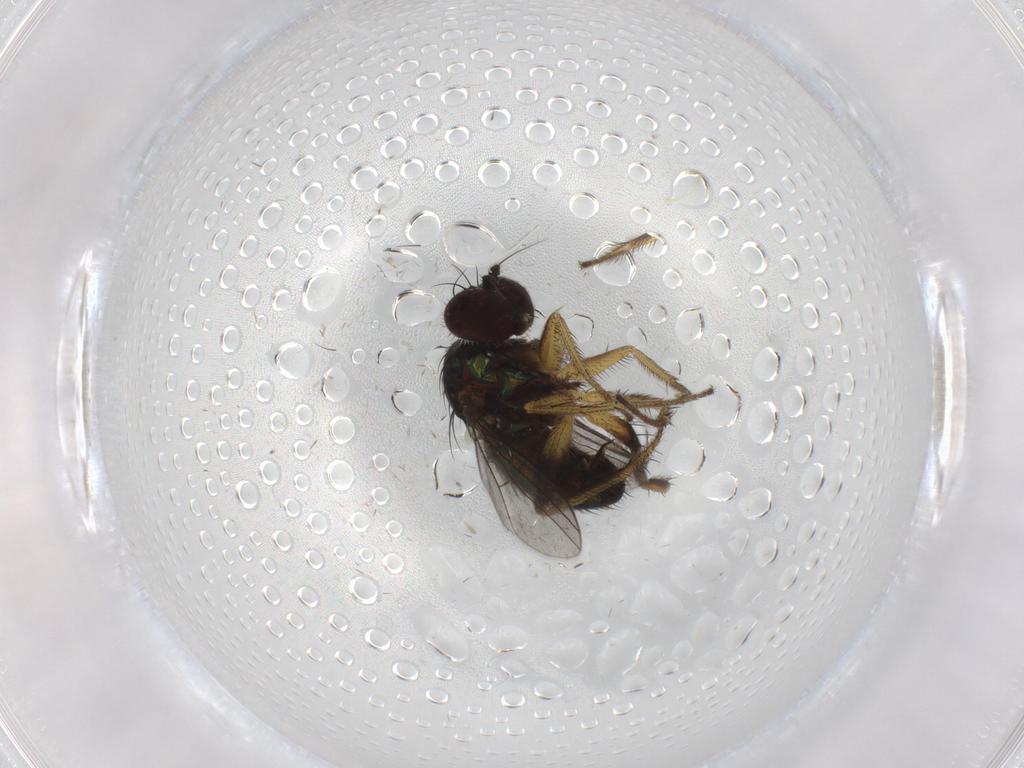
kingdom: Animalia
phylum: Arthropoda
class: Insecta
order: Diptera
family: Dolichopodidae
